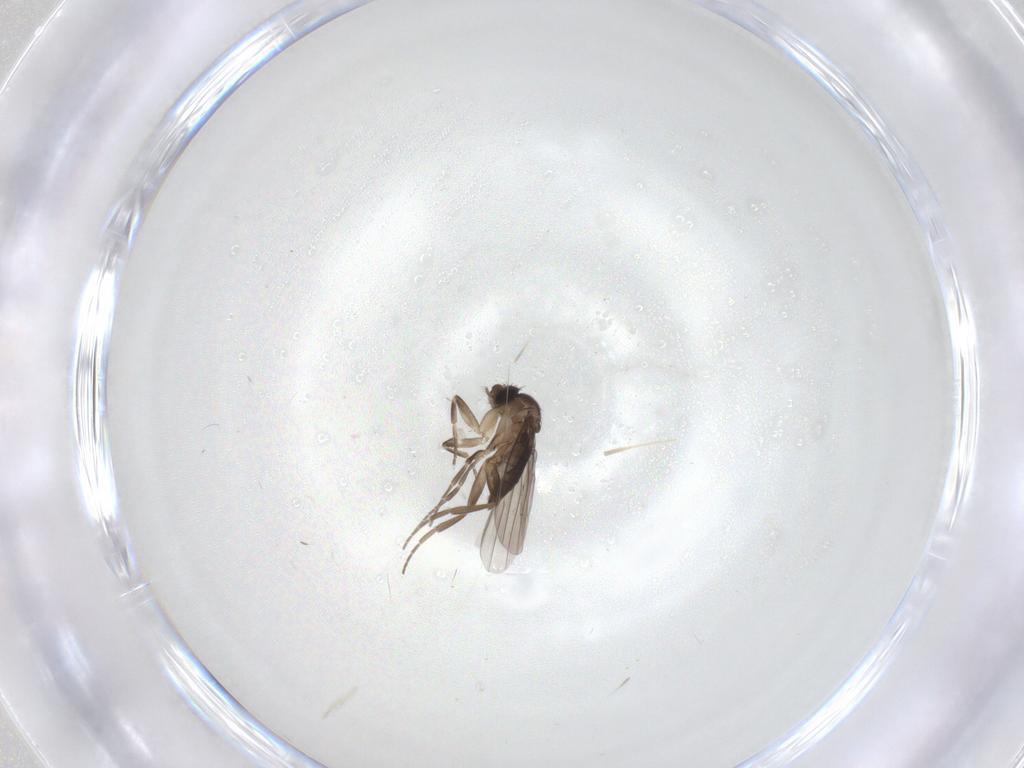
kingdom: Animalia
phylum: Arthropoda
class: Insecta
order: Diptera
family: Phoridae
